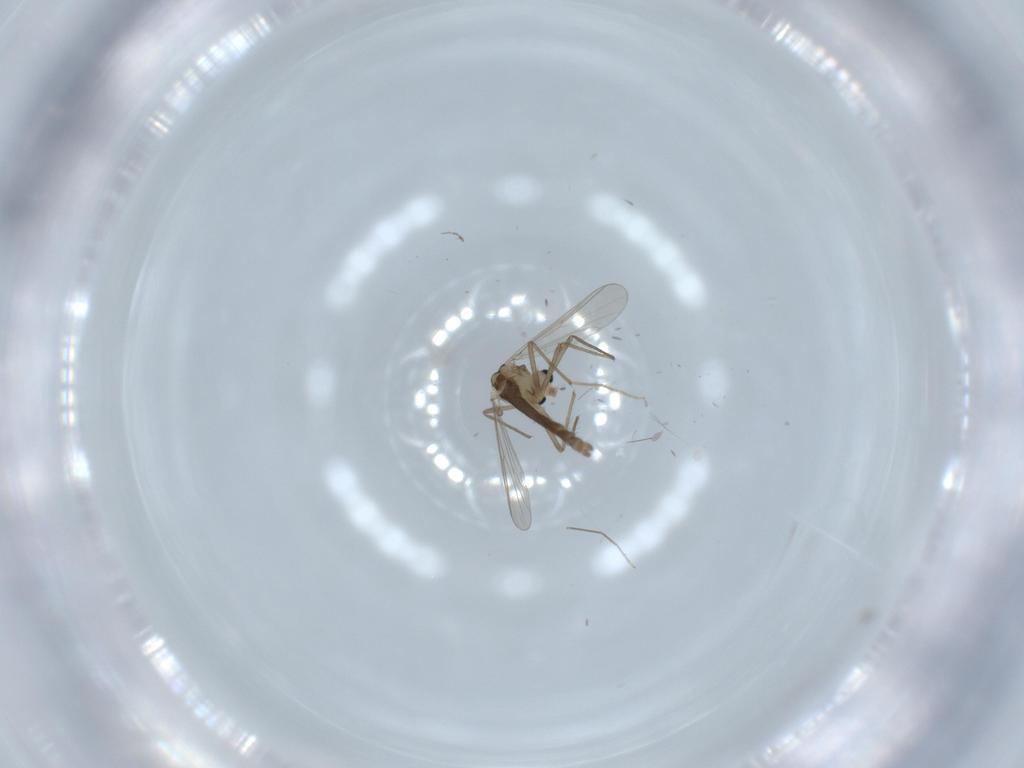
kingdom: Animalia
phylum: Arthropoda
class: Insecta
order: Diptera
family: Chironomidae
